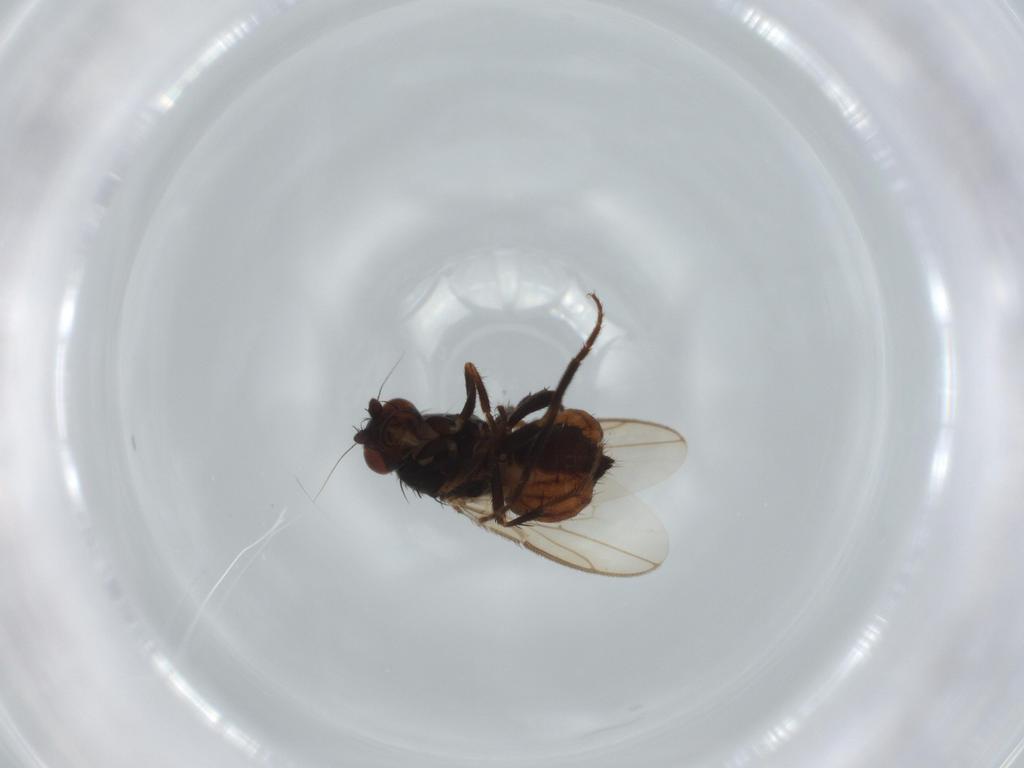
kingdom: Animalia
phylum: Arthropoda
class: Insecta
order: Diptera
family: Sphaeroceridae
